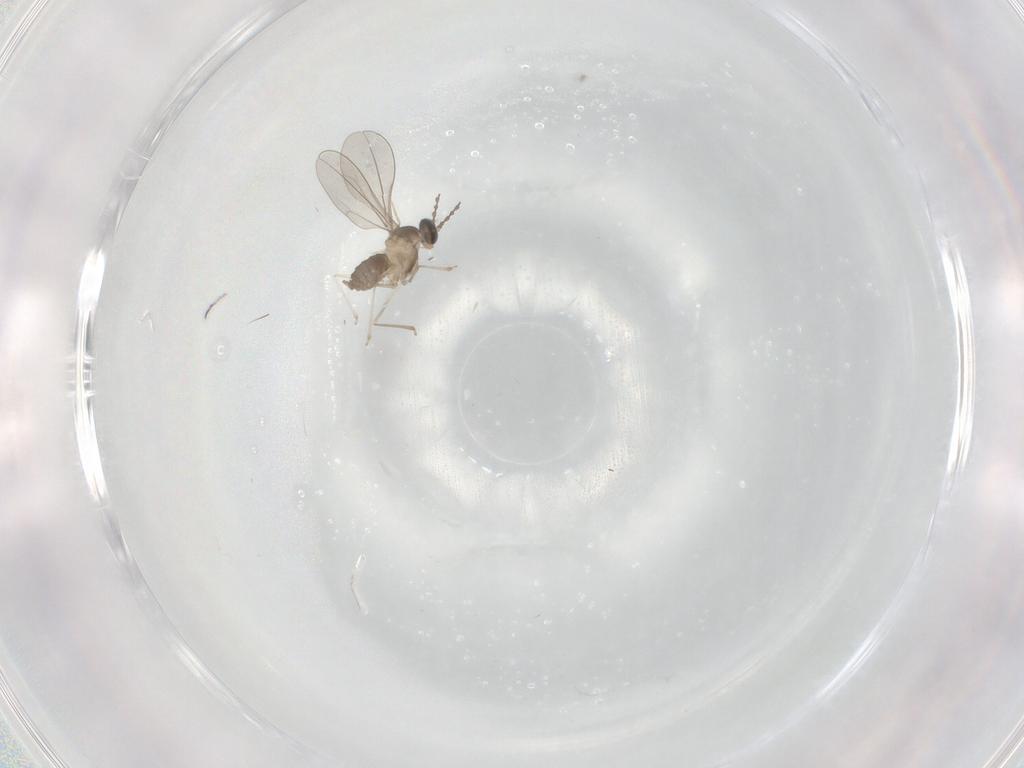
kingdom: Animalia
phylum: Arthropoda
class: Insecta
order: Diptera
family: Cecidomyiidae
